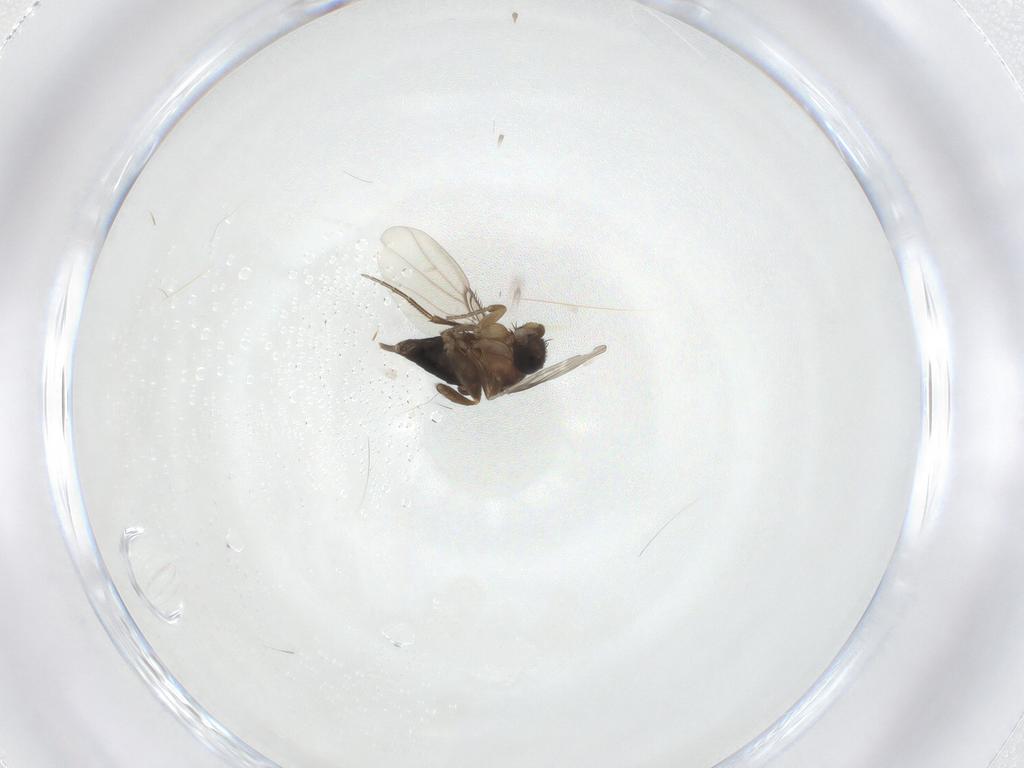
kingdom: Animalia
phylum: Arthropoda
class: Insecta
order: Diptera
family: Phoridae
